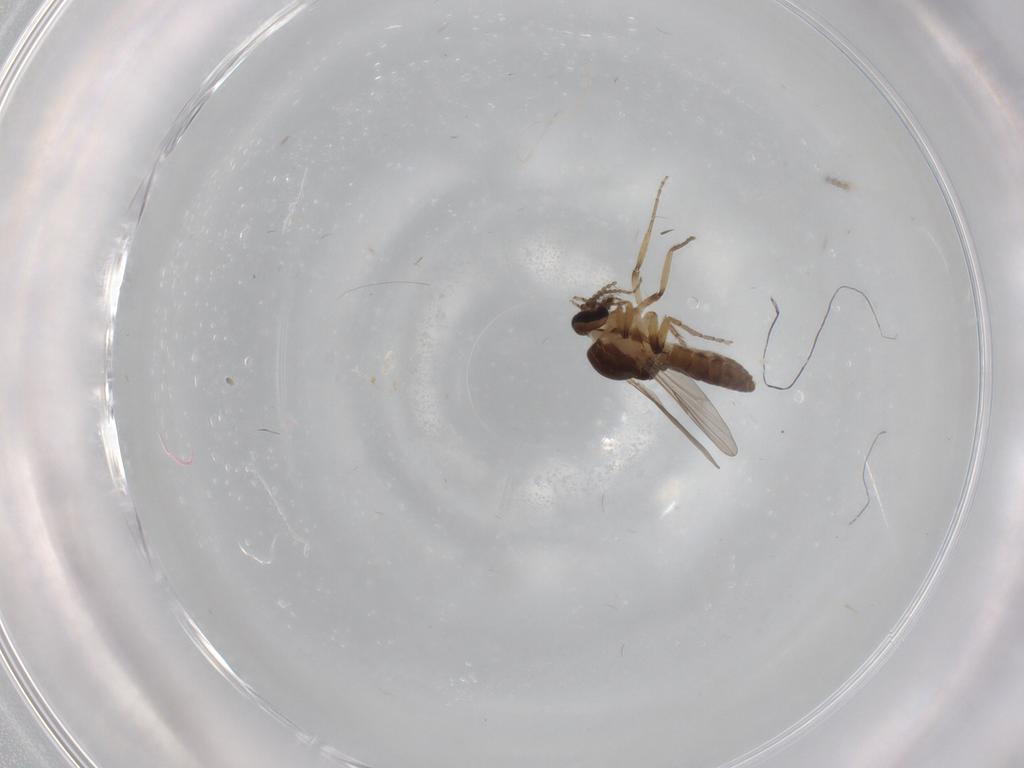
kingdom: Animalia
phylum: Arthropoda
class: Insecta
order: Diptera
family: Ceratopogonidae
